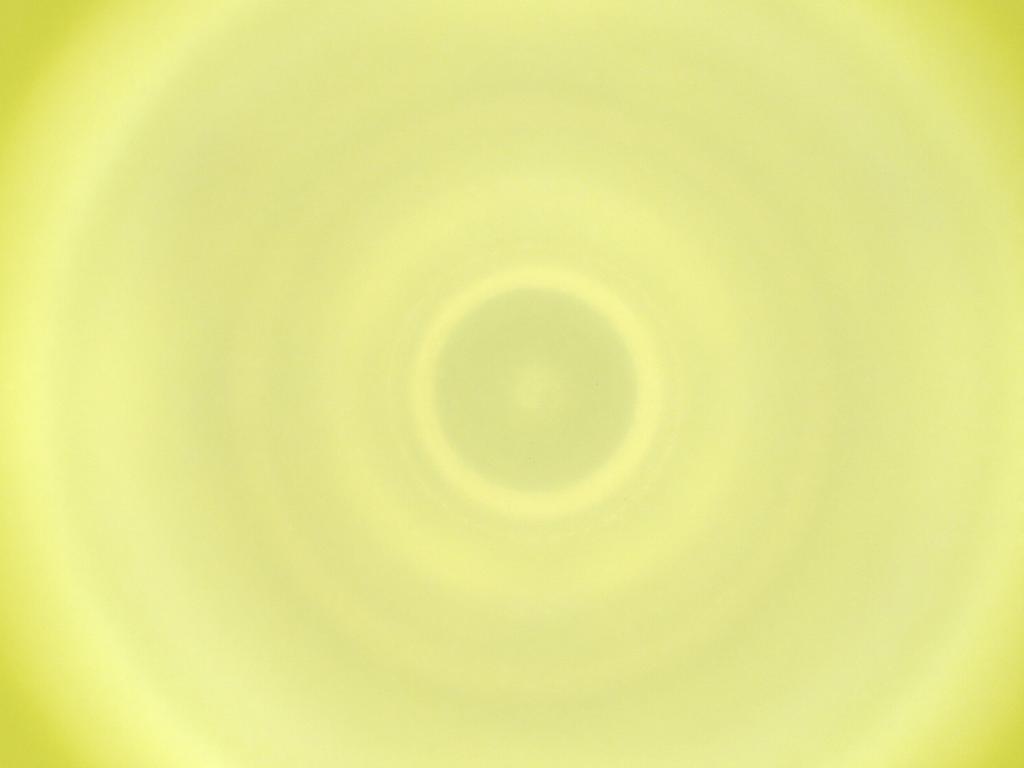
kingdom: Animalia
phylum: Arthropoda
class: Insecta
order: Diptera
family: Cecidomyiidae
